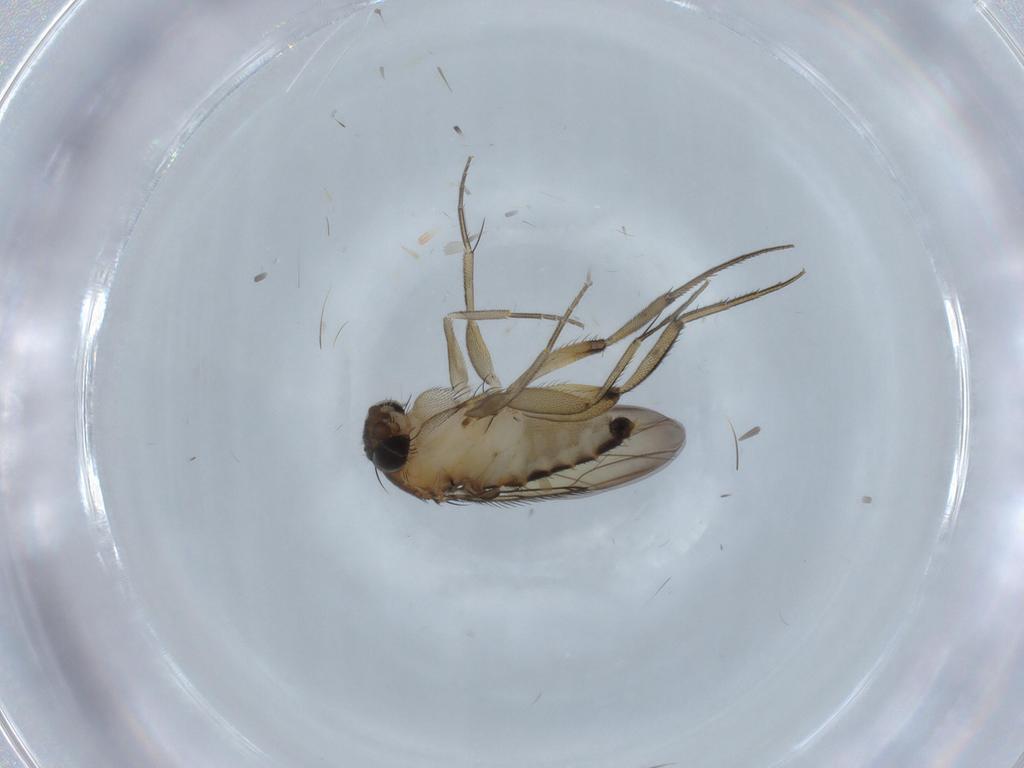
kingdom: Animalia
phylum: Arthropoda
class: Insecta
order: Diptera
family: Phoridae
